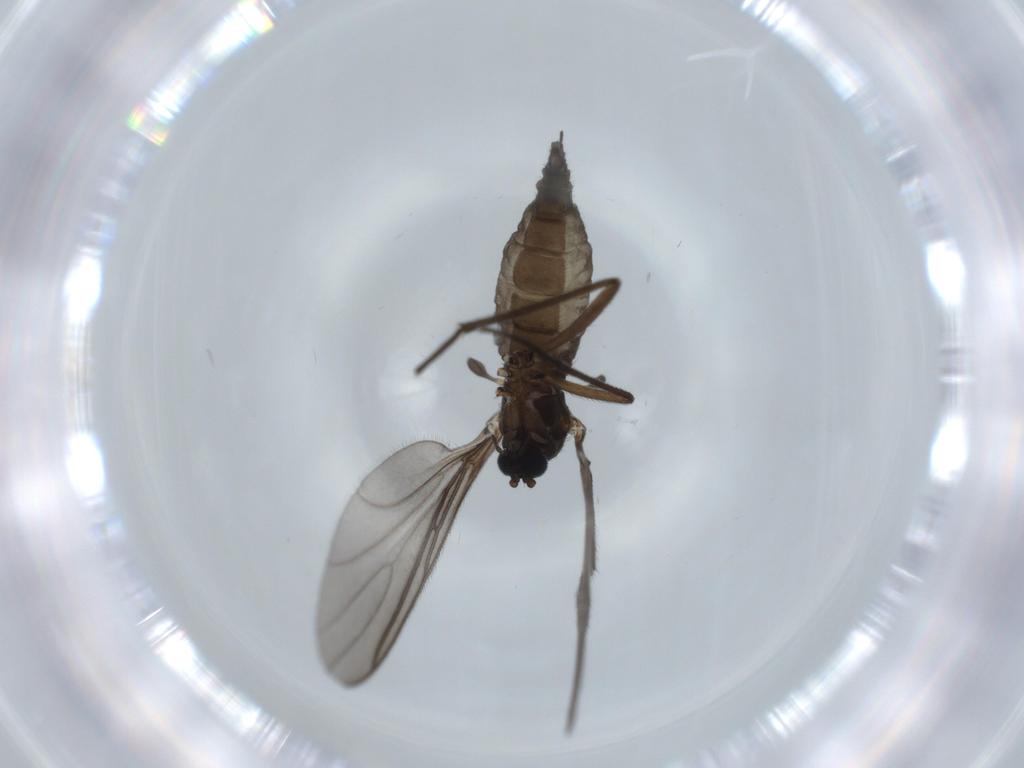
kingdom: Animalia
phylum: Arthropoda
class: Insecta
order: Diptera
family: Sciaridae
